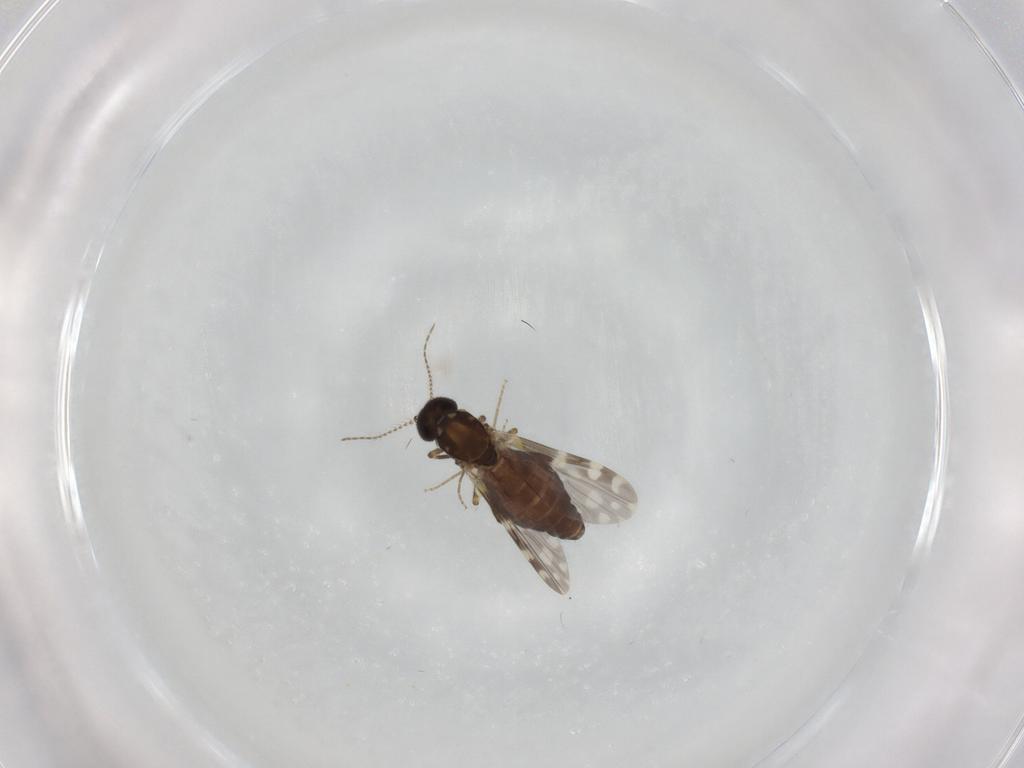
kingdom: Animalia
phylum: Arthropoda
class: Insecta
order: Diptera
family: Ceratopogonidae
